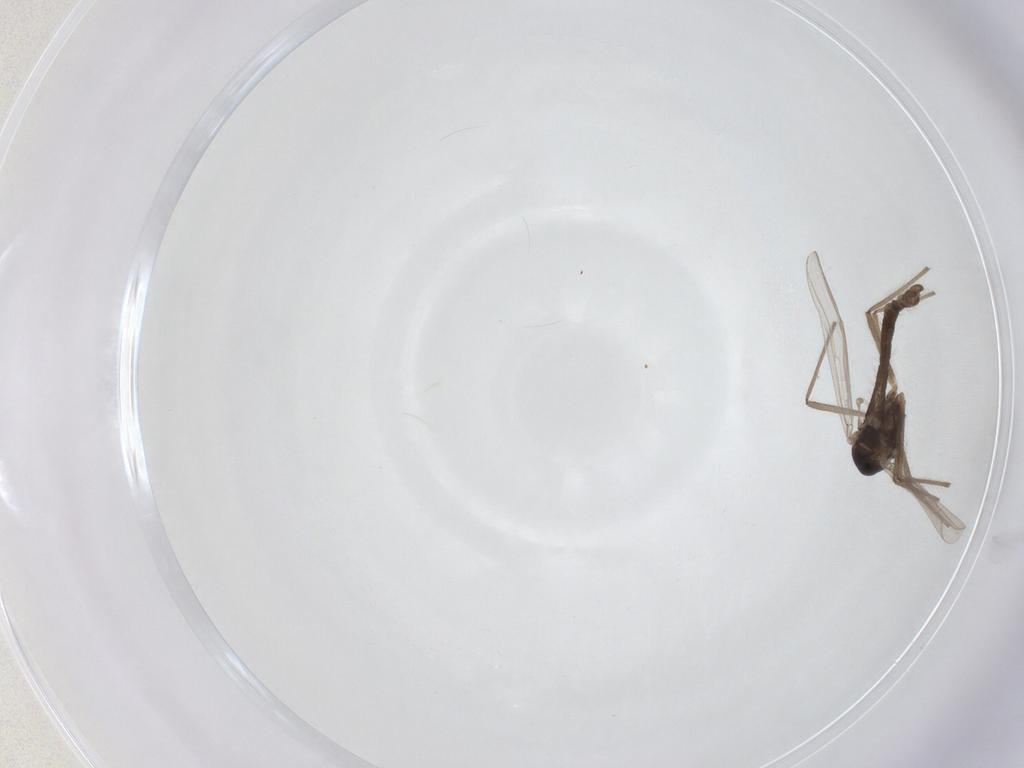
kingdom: Animalia
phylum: Arthropoda
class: Insecta
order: Diptera
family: Chironomidae
